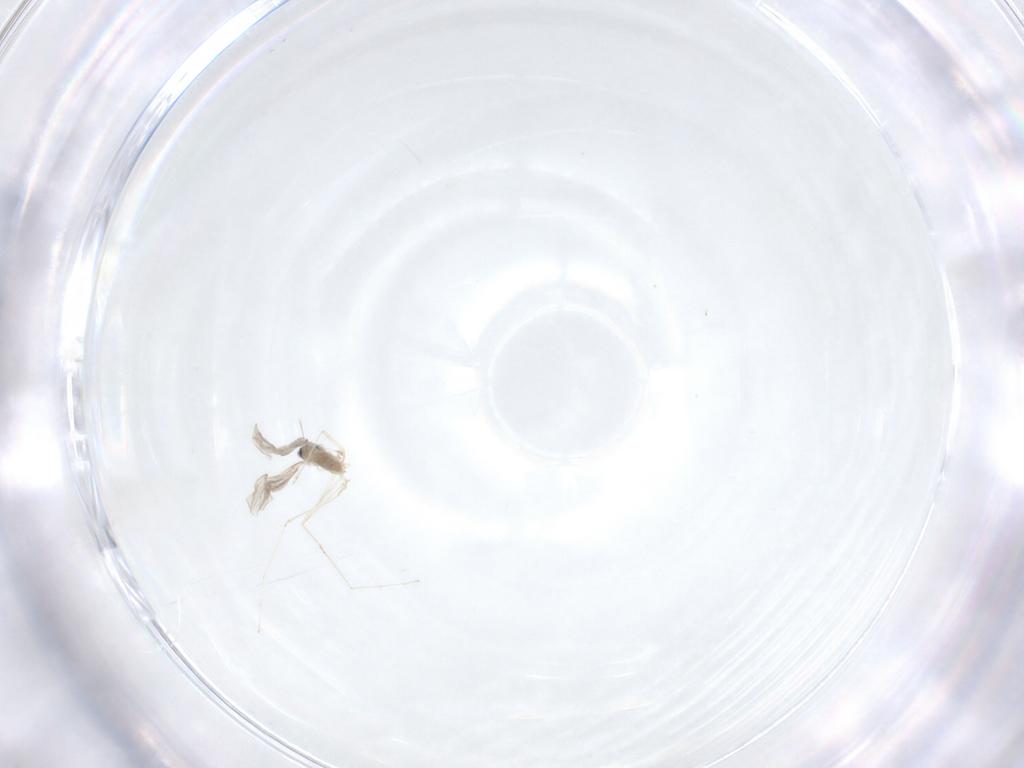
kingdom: Animalia
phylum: Arthropoda
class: Insecta
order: Diptera
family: Cecidomyiidae
